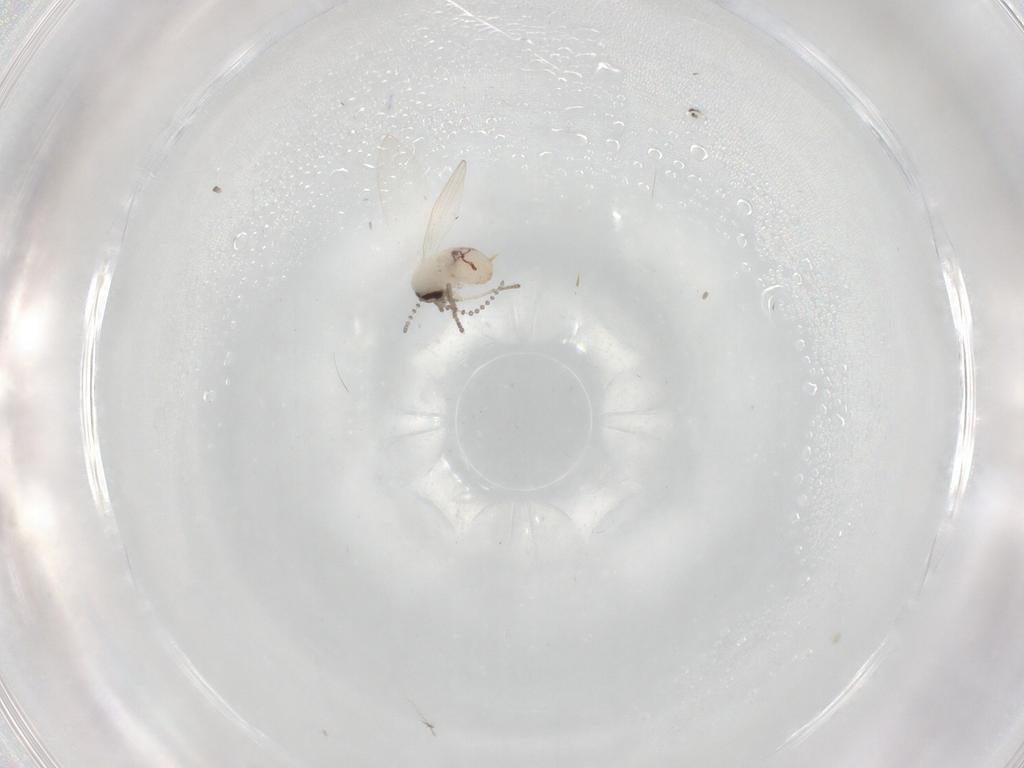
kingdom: Animalia
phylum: Arthropoda
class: Insecta
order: Diptera
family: Psychodidae
